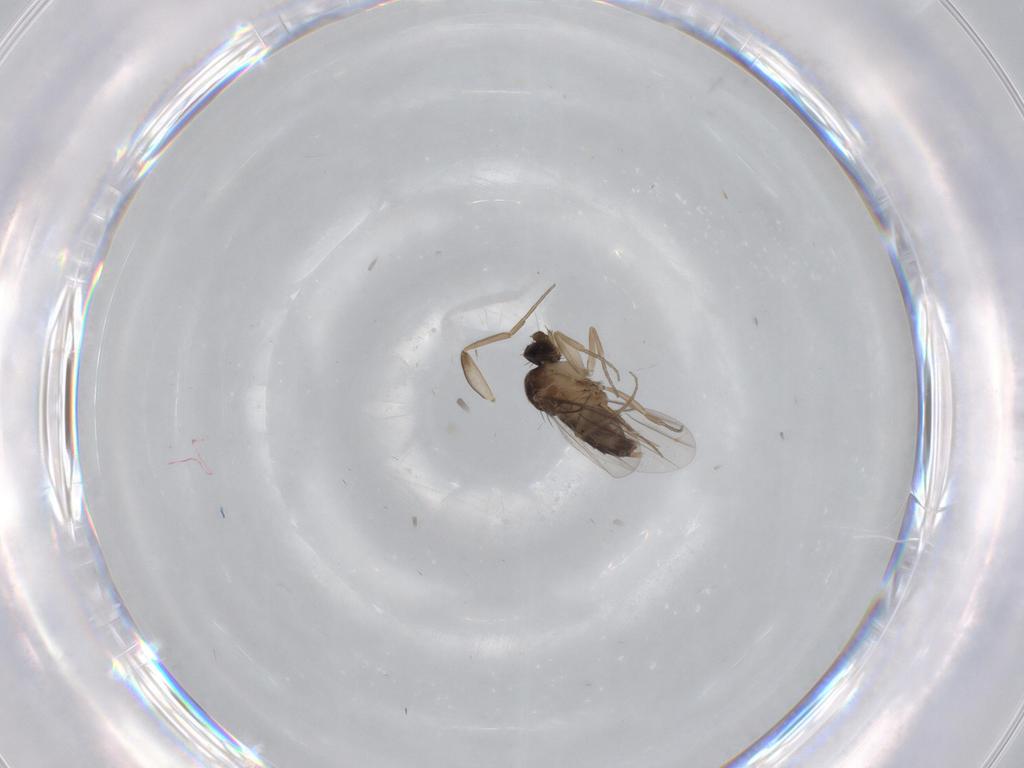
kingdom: Animalia
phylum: Arthropoda
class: Insecta
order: Diptera
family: Phoridae
